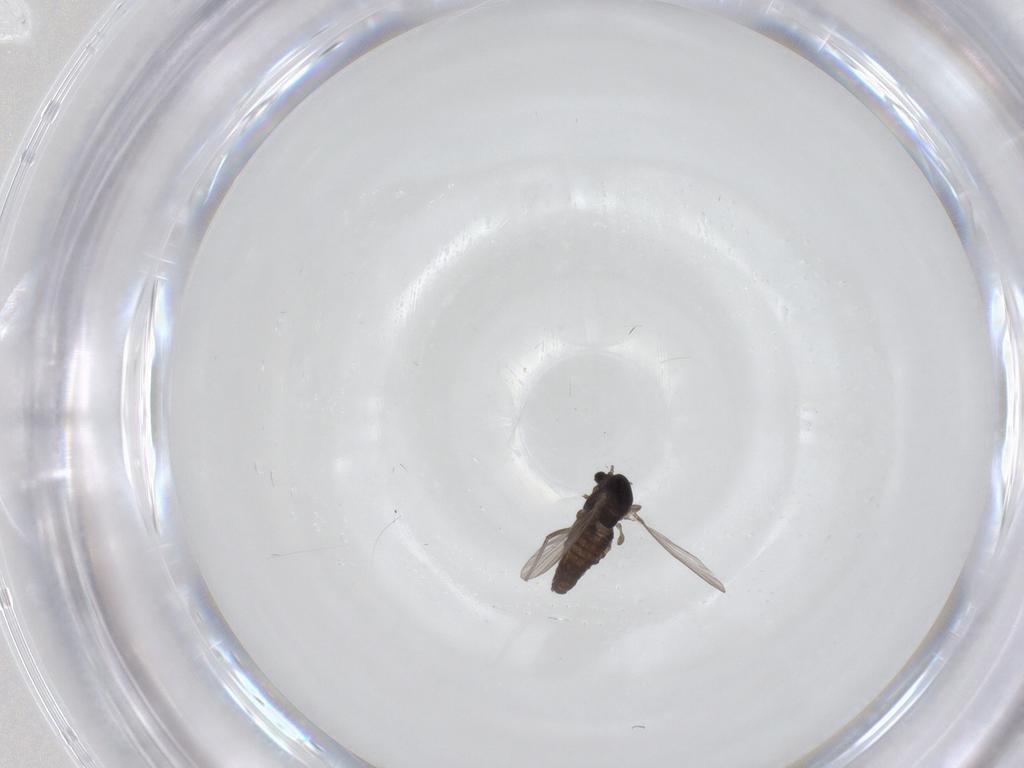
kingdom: Animalia
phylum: Arthropoda
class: Insecta
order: Diptera
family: Chironomidae
